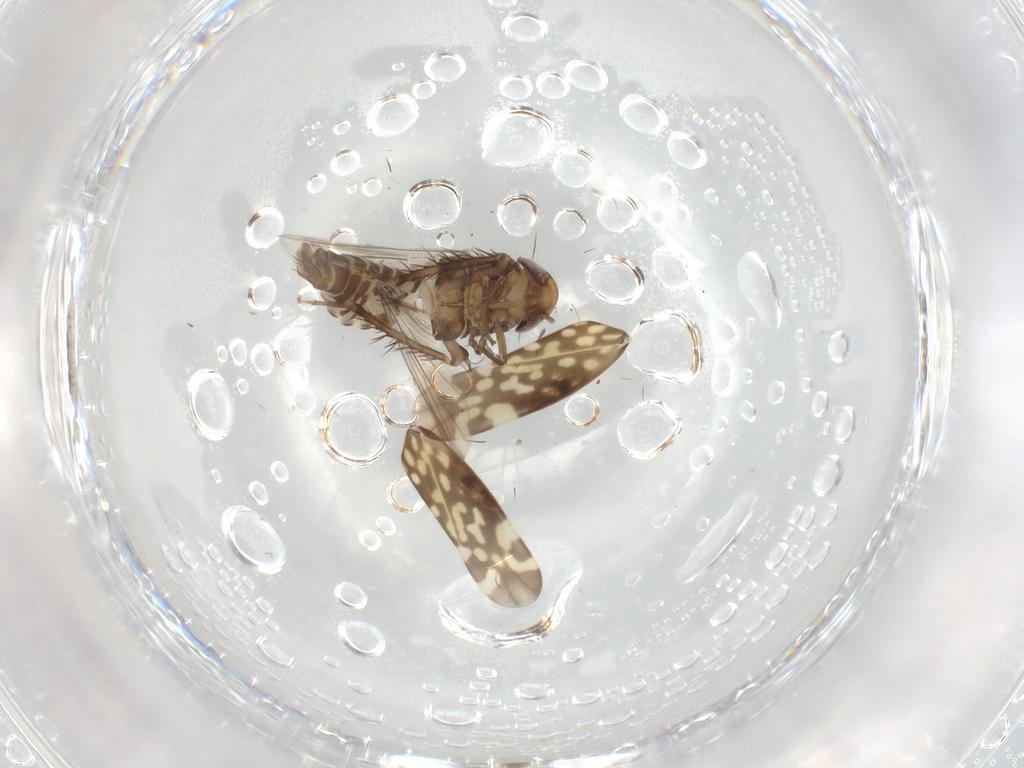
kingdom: Animalia
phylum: Arthropoda
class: Insecta
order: Hemiptera
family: Cicadellidae
